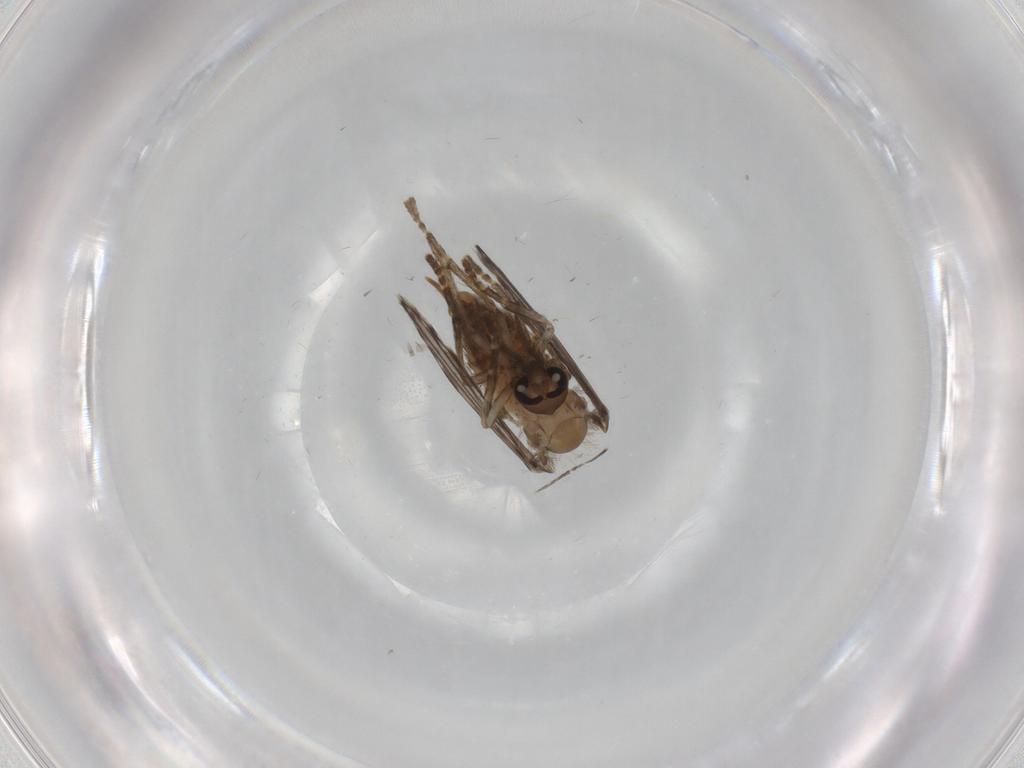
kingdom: Animalia
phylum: Arthropoda
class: Insecta
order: Diptera
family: Psychodidae
